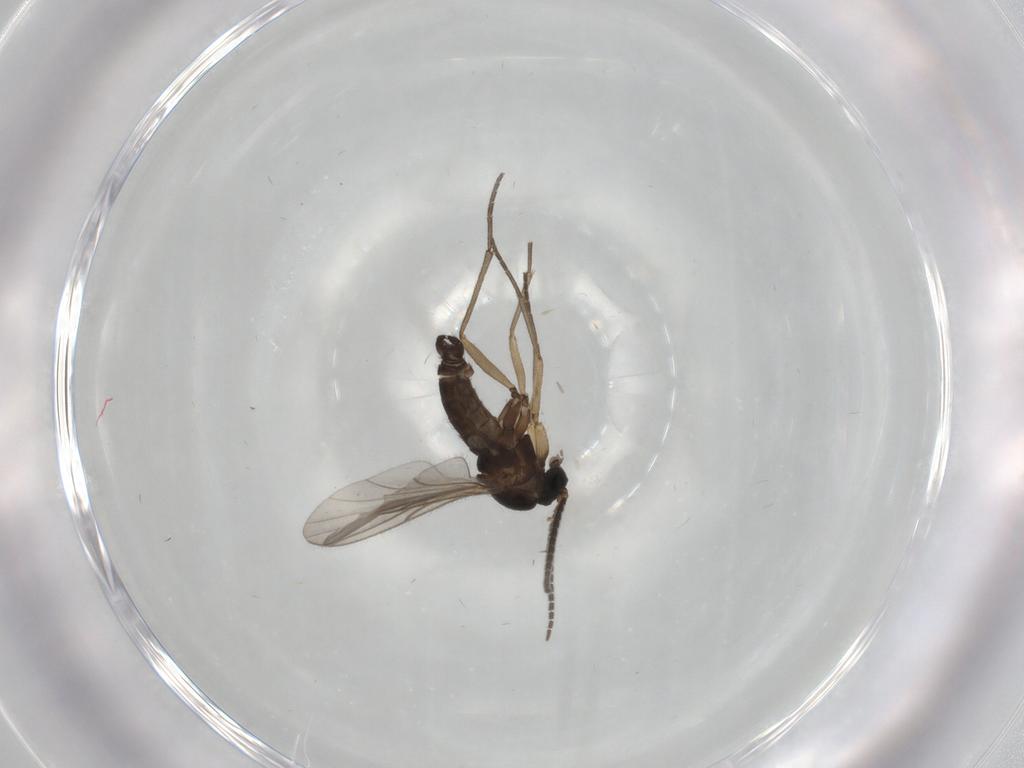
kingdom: Animalia
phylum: Arthropoda
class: Insecta
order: Diptera
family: Sciaridae
